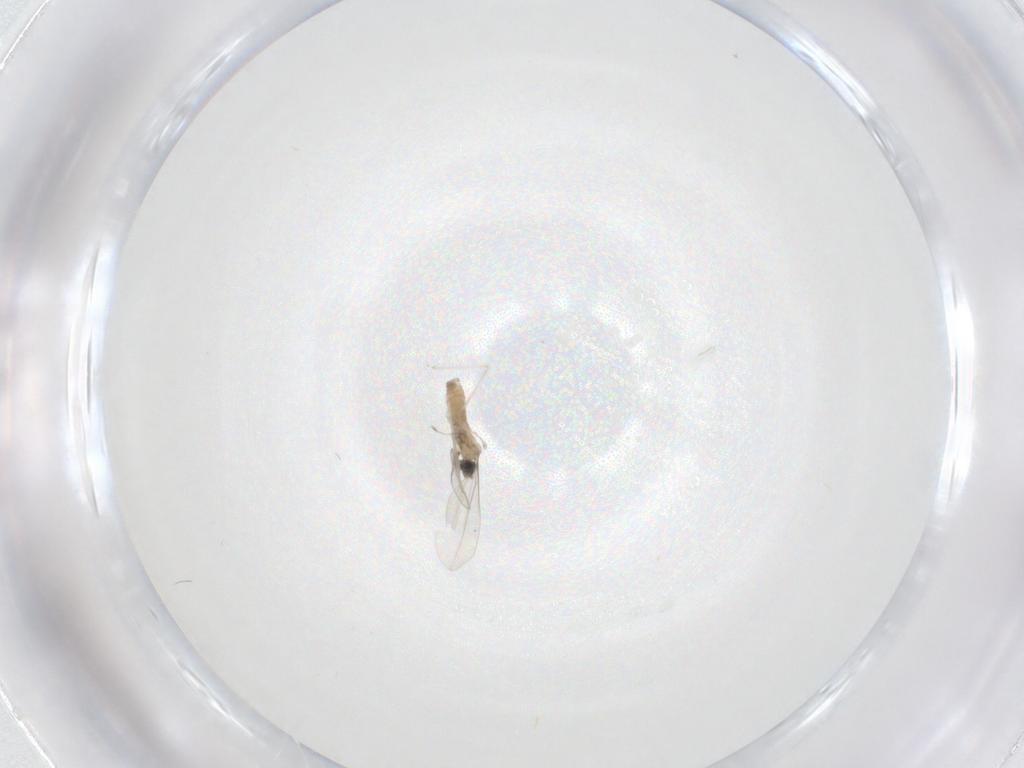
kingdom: Animalia
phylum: Arthropoda
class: Insecta
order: Diptera
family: Cecidomyiidae
